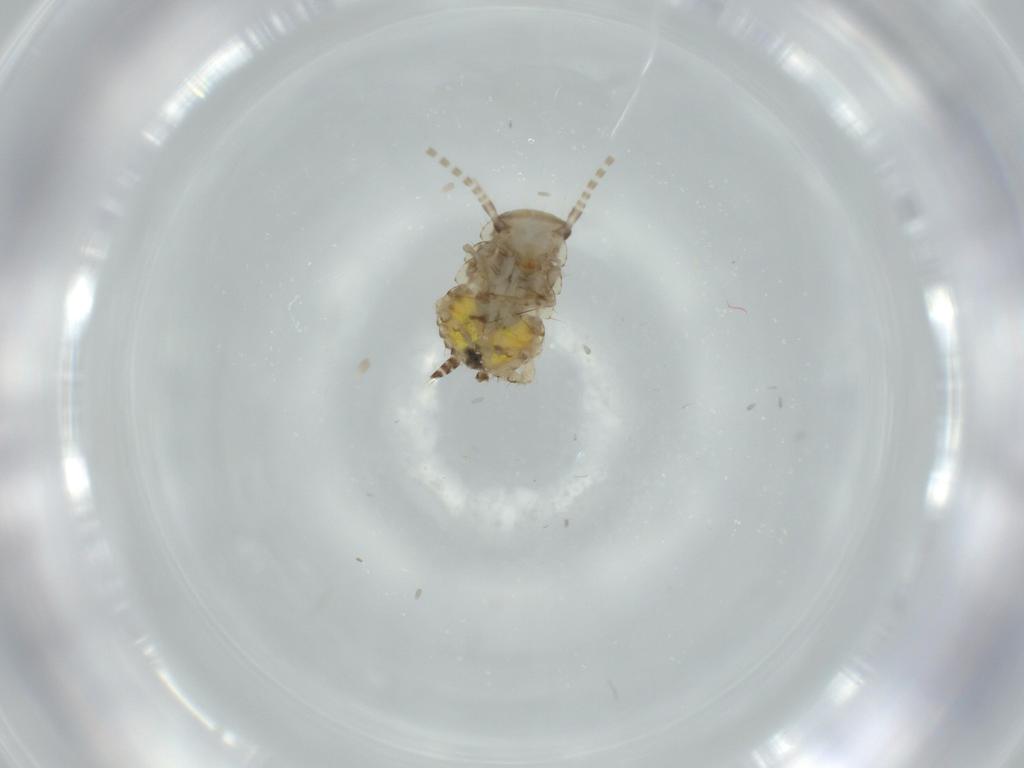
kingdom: Animalia
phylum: Arthropoda
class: Insecta
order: Blattodea
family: Ectobiidae
